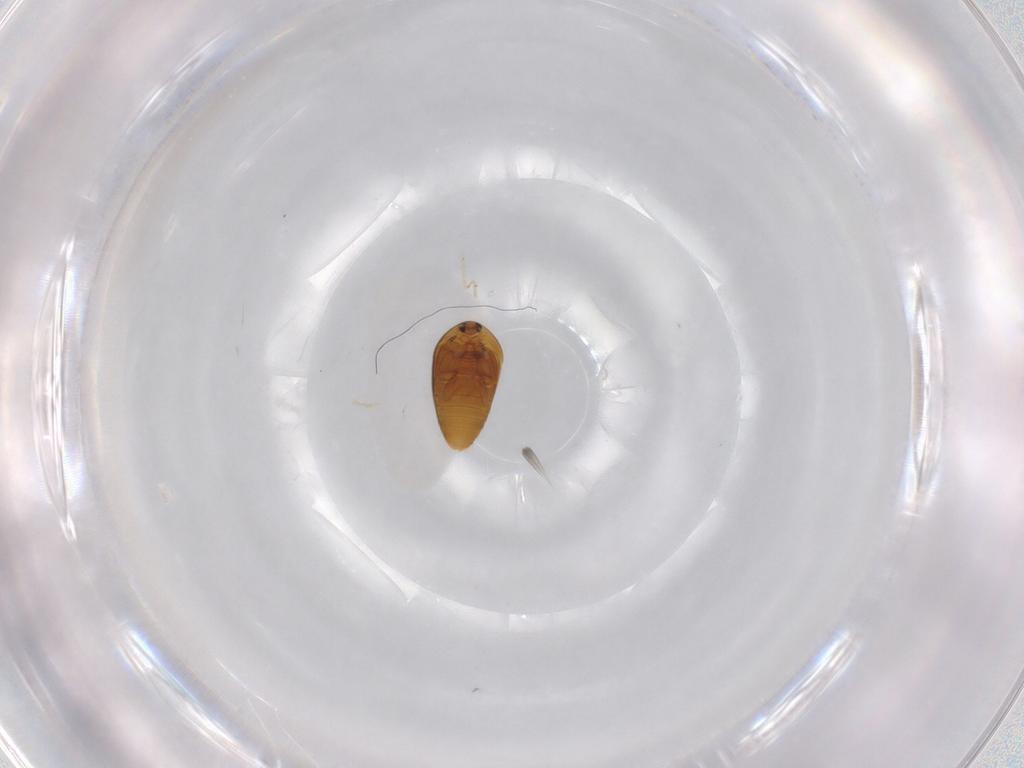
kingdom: Animalia
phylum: Arthropoda
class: Insecta
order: Coleoptera
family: Corylophidae
